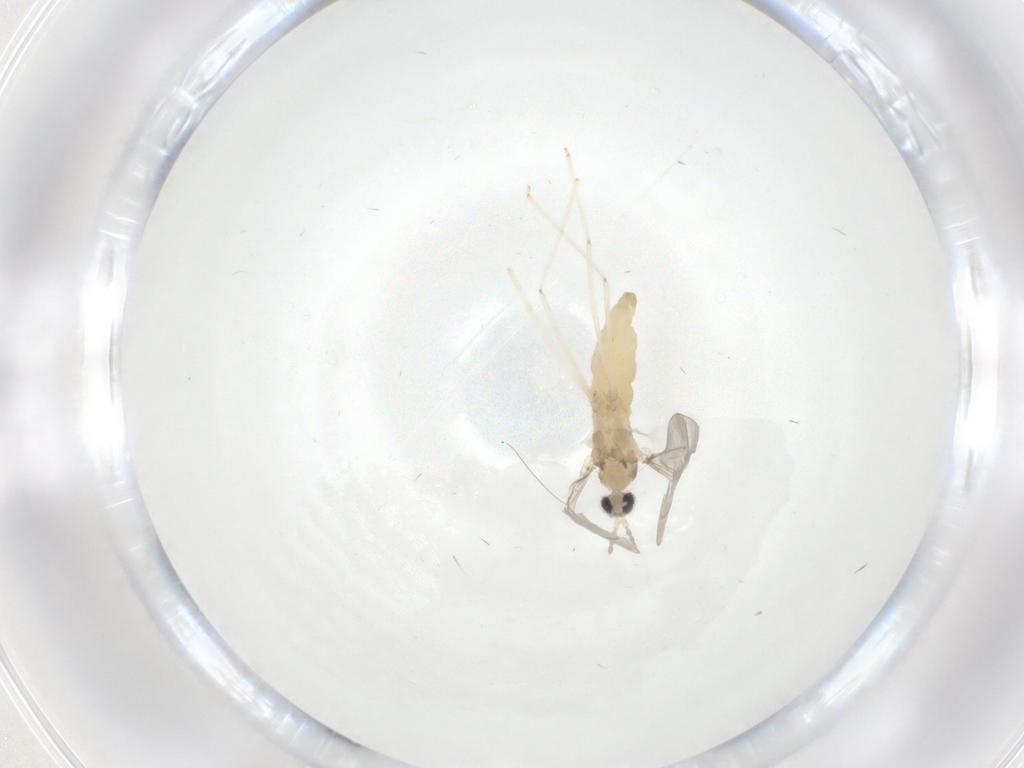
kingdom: Animalia
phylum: Arthropoda
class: Insecta
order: Diptera
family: Cecidomyiidae
